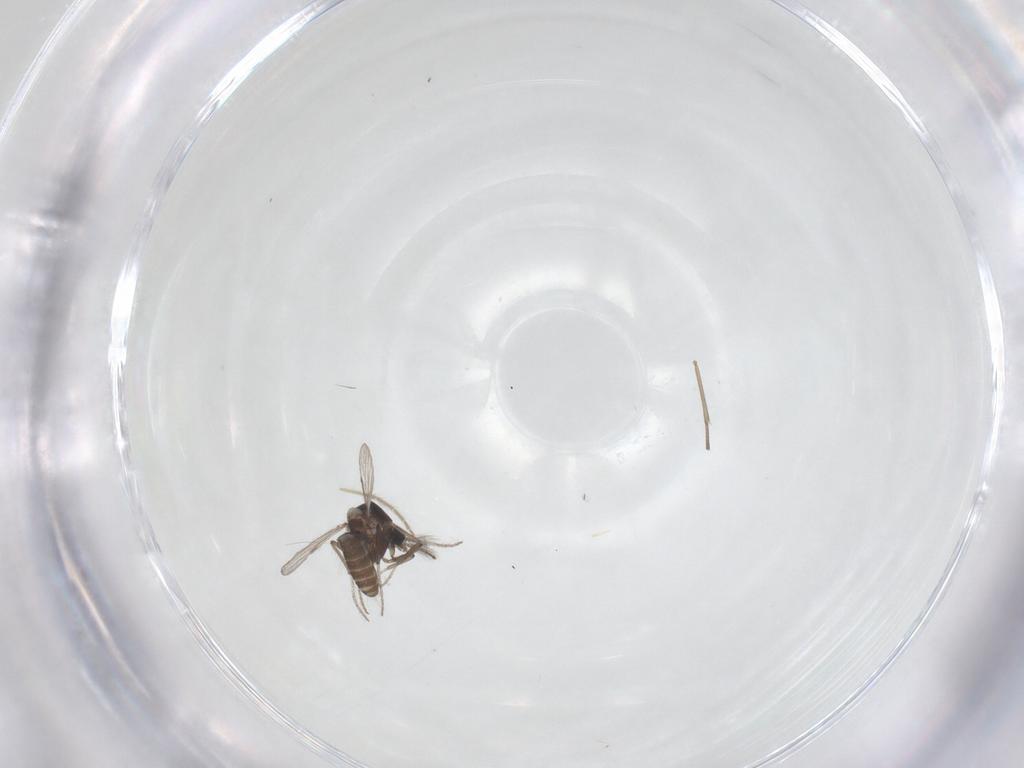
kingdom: Animalia
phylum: Arthropoda
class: Insecta
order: Diptera
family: Ceratopogonidae
